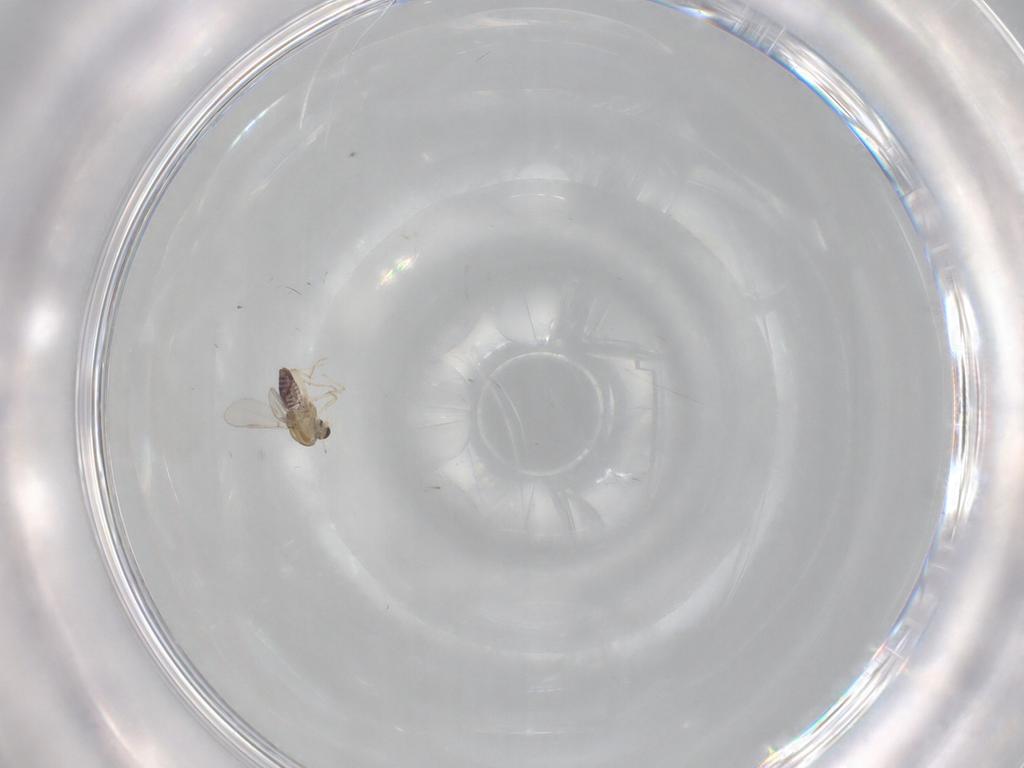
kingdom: Animalia
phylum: Arthropoda
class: Insecta
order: Diptera
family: Chironomidae
